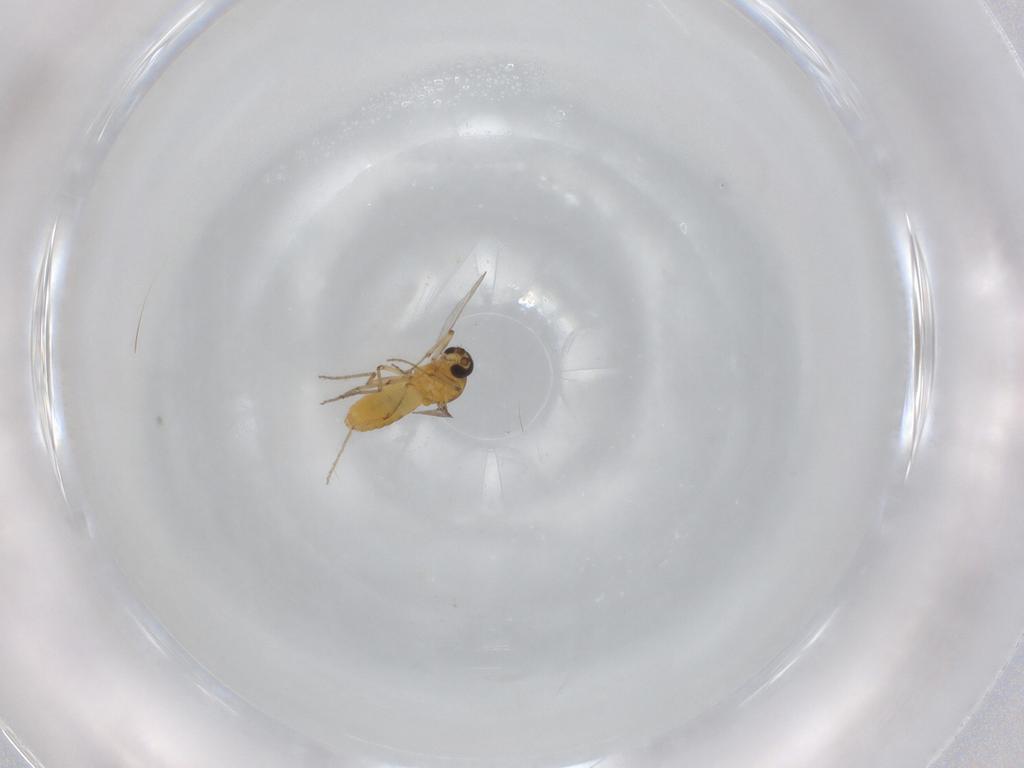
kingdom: Animalia
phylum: Arthropoda
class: Insecta
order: Diptera
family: Ceratopogonidae
